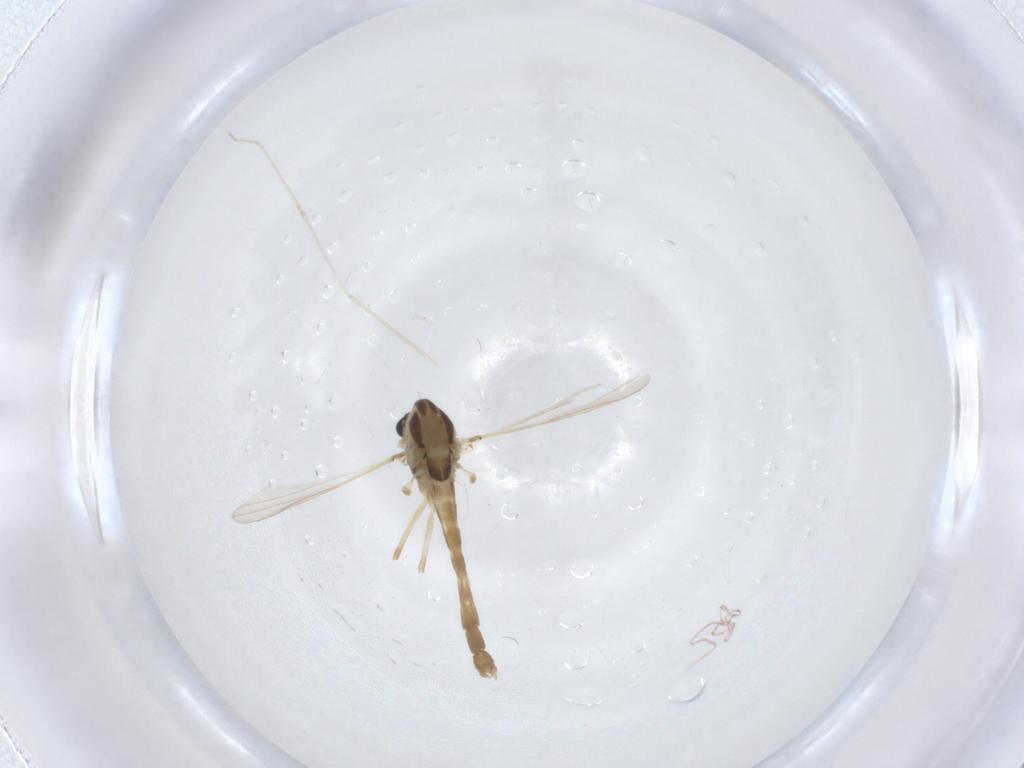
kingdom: Animalia
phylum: Arthropoda
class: Insecta
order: Diptera
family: Chironomidae
